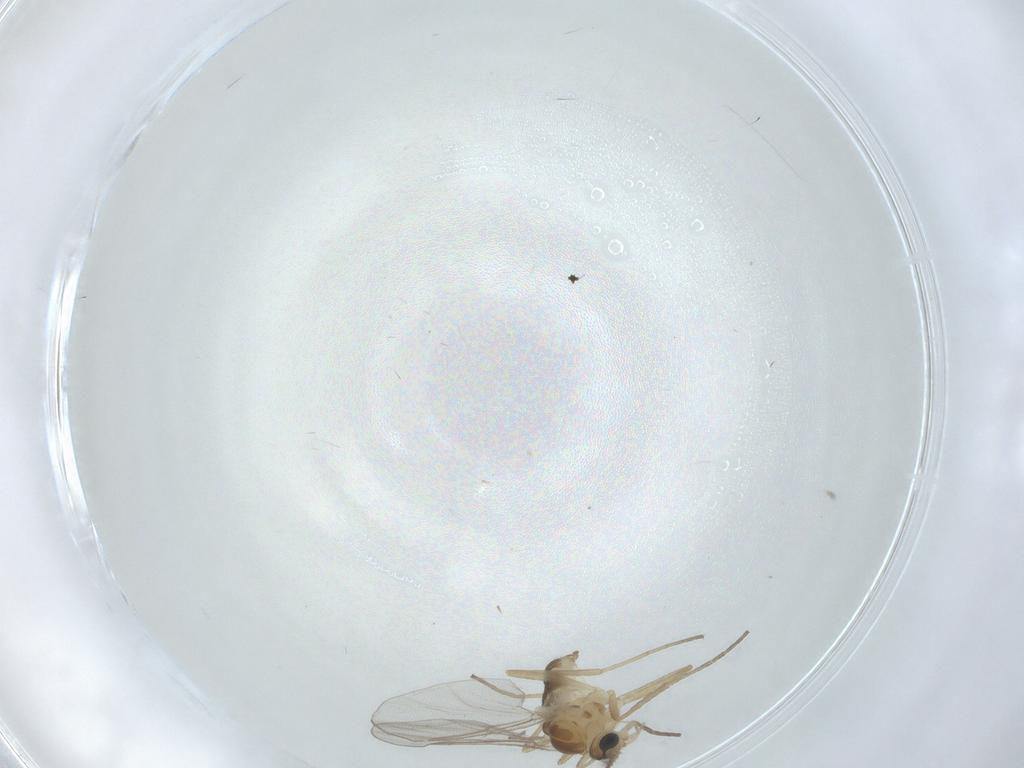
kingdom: Animalia
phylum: Arthropoda
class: Insecta
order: Diptera
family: Cecidomyiidae
